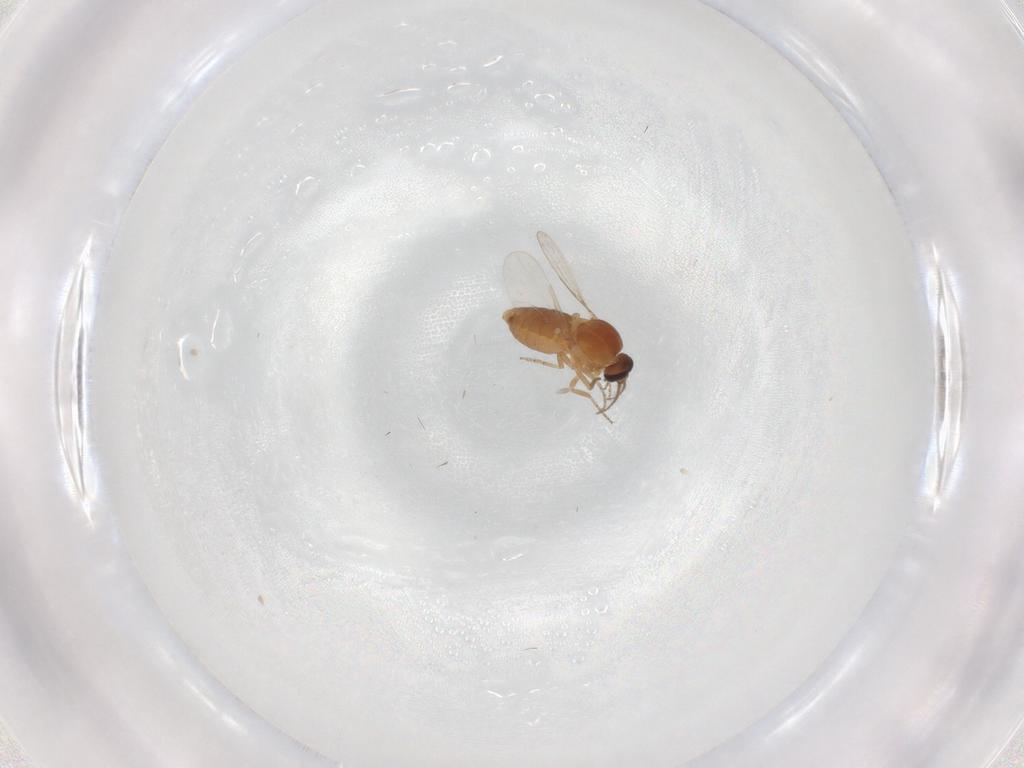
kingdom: Animalia
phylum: Arthropoda
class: Insecta
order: Diptera
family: Ceratopogonidae
